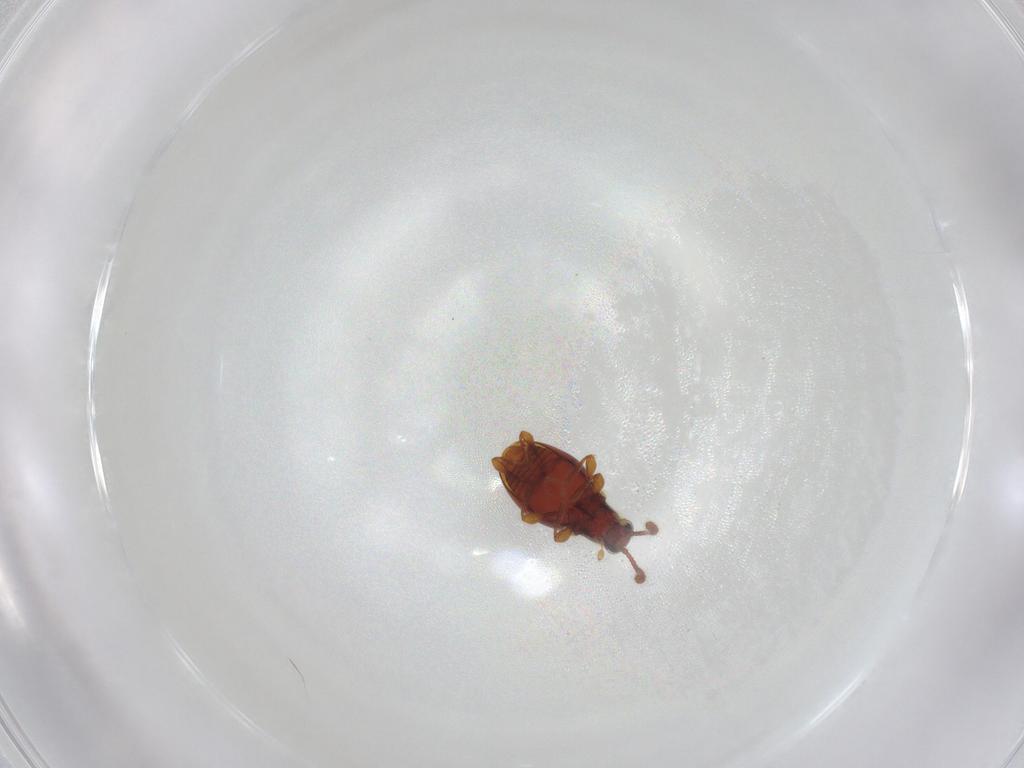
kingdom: Animalia
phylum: Arthropoda
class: Insecta
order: Coleoptera
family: Staphylinidae
